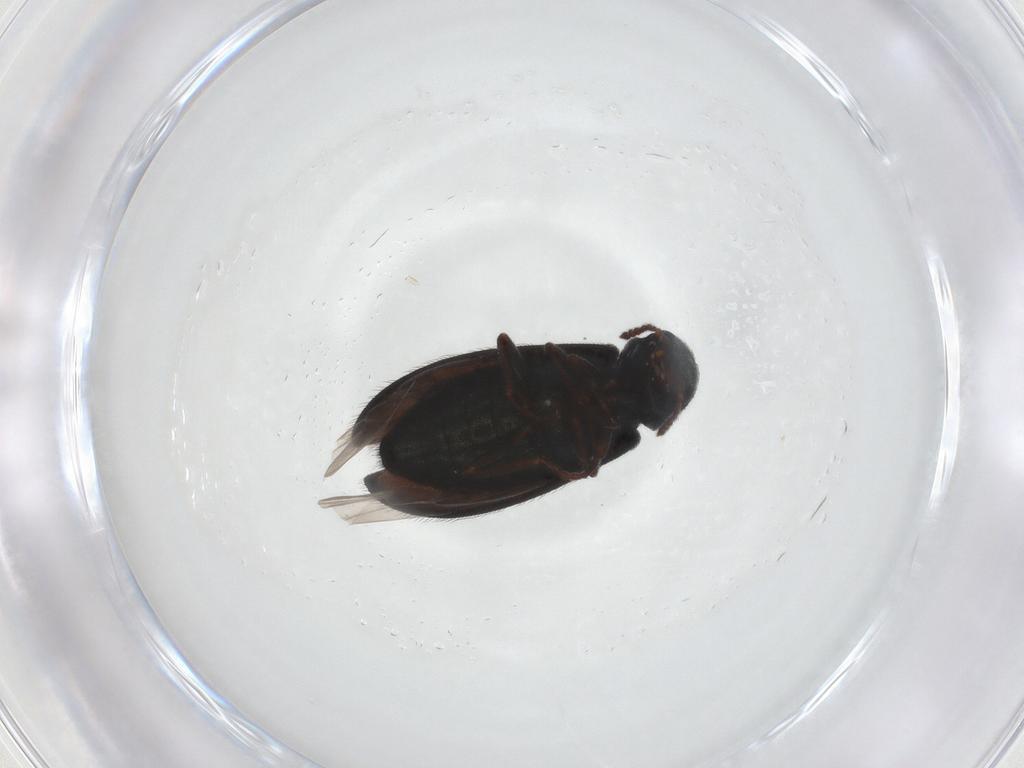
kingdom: Animalia
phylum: Arthropoda
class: Insecta
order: Coleoptera
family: Melyridae
